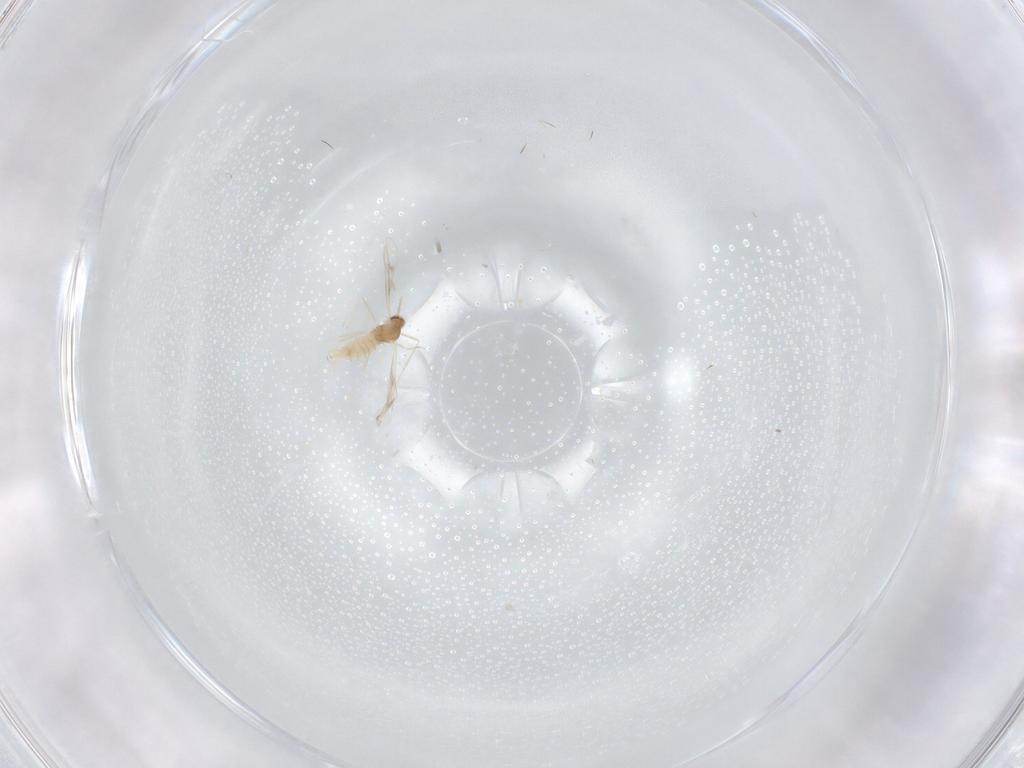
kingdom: Animalia
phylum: Arthropoda
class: Insecta
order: Diptera
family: Cecidomyiidae
